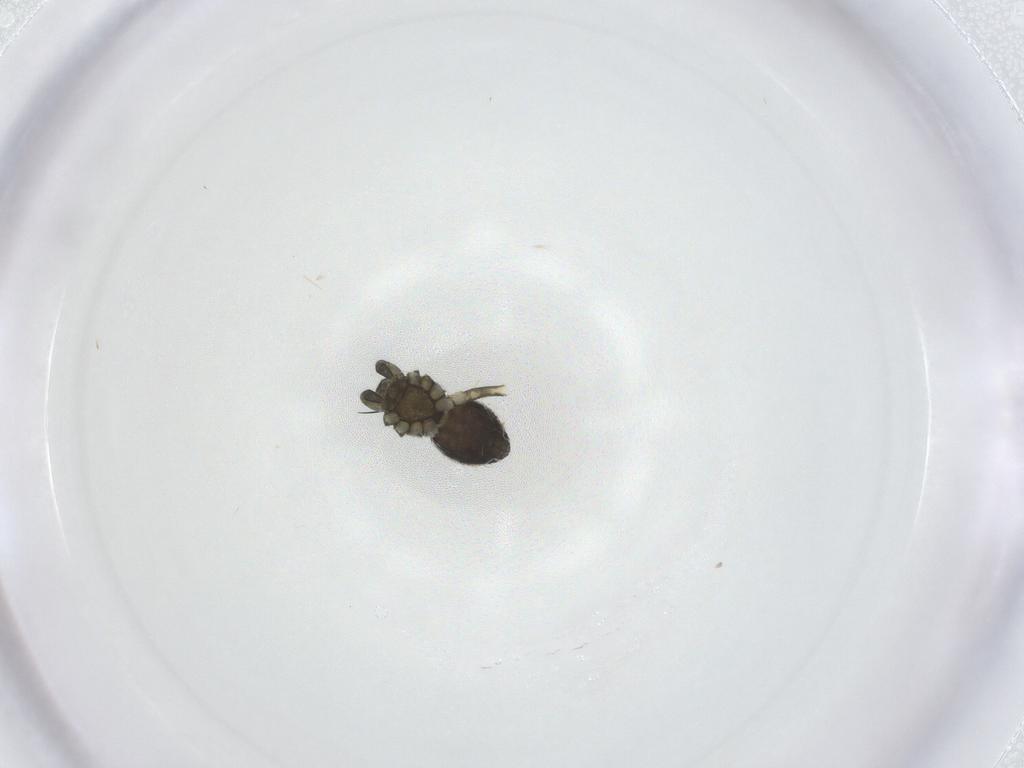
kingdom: Animalia
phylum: Arthropoda
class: Arachnida
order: Araneae
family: Theridiidae
